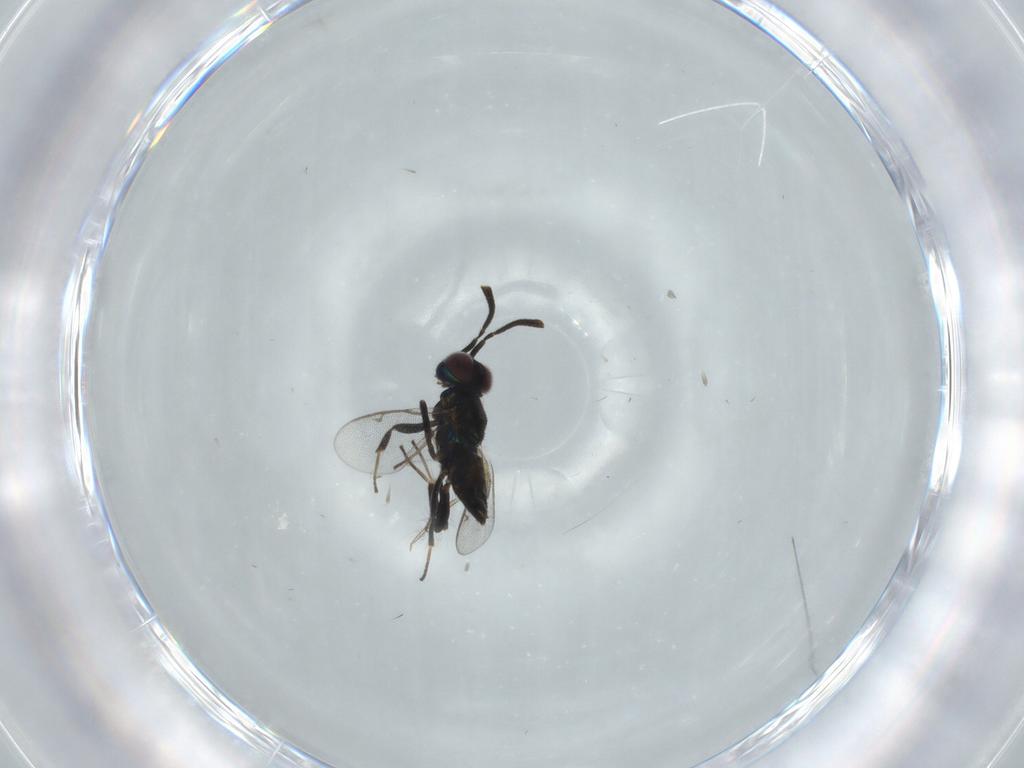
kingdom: Animalia
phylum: Arthropoda
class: Insecta
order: Hymenoptera
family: Eupelmidae
